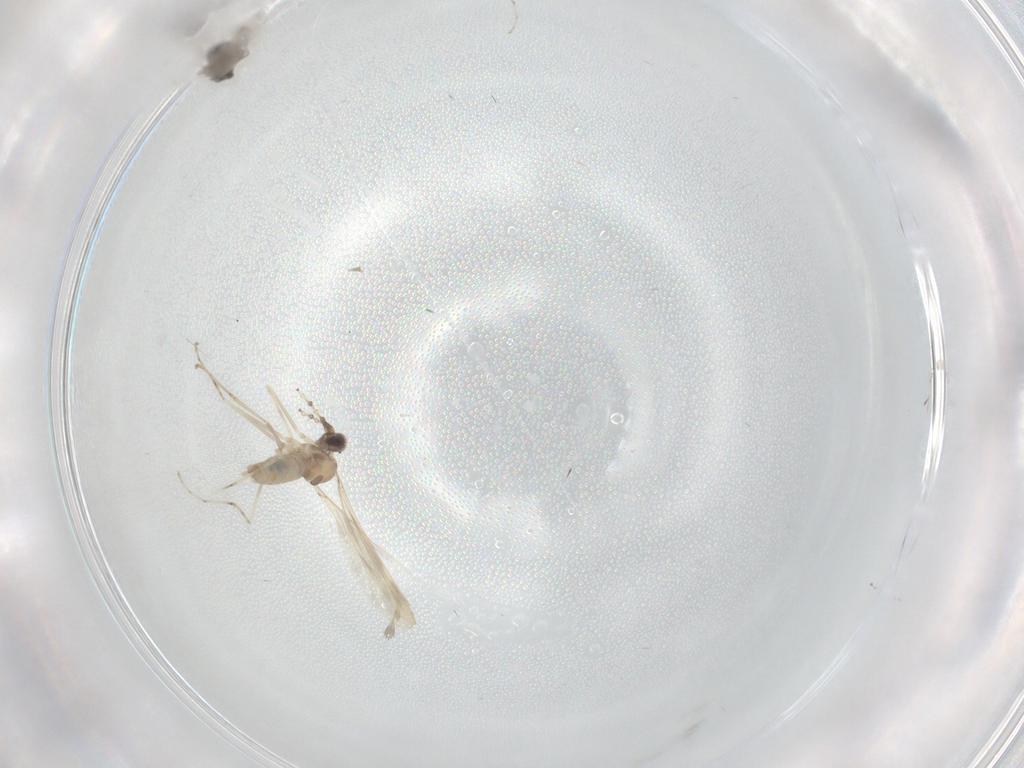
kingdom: Animalia
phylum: Arthropoda
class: Insecta
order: Diptera
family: Cecidomyiidae
